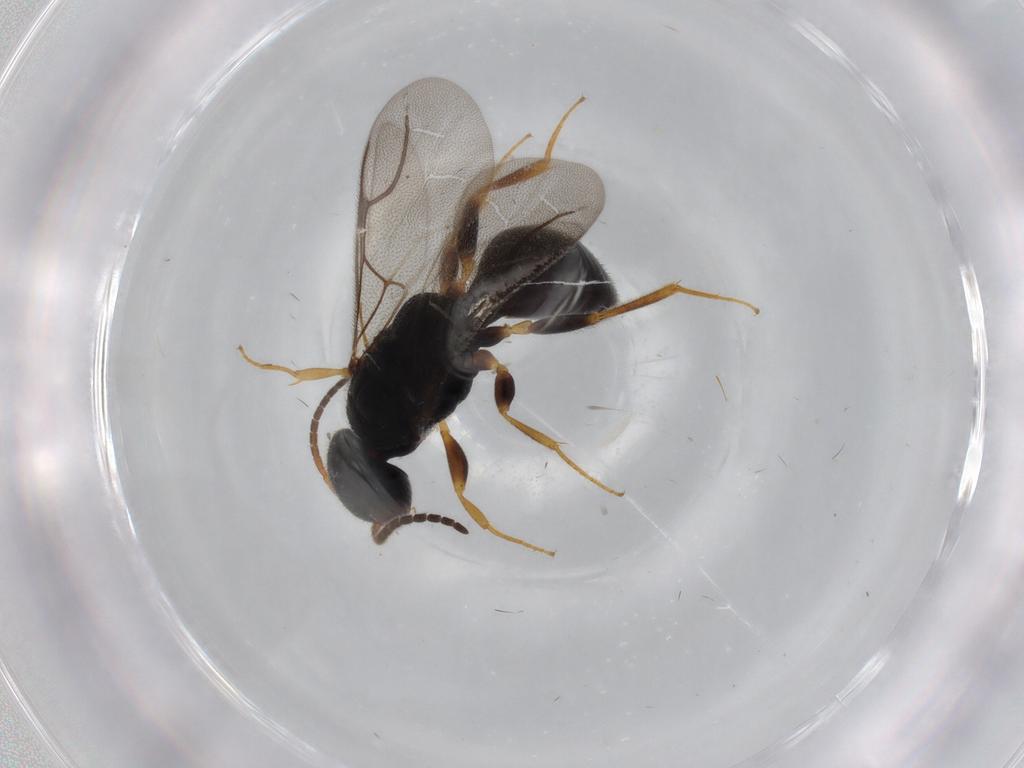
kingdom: Animalia
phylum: Arthropoda
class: Insecta
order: Hymenoptera
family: Bethylidae
